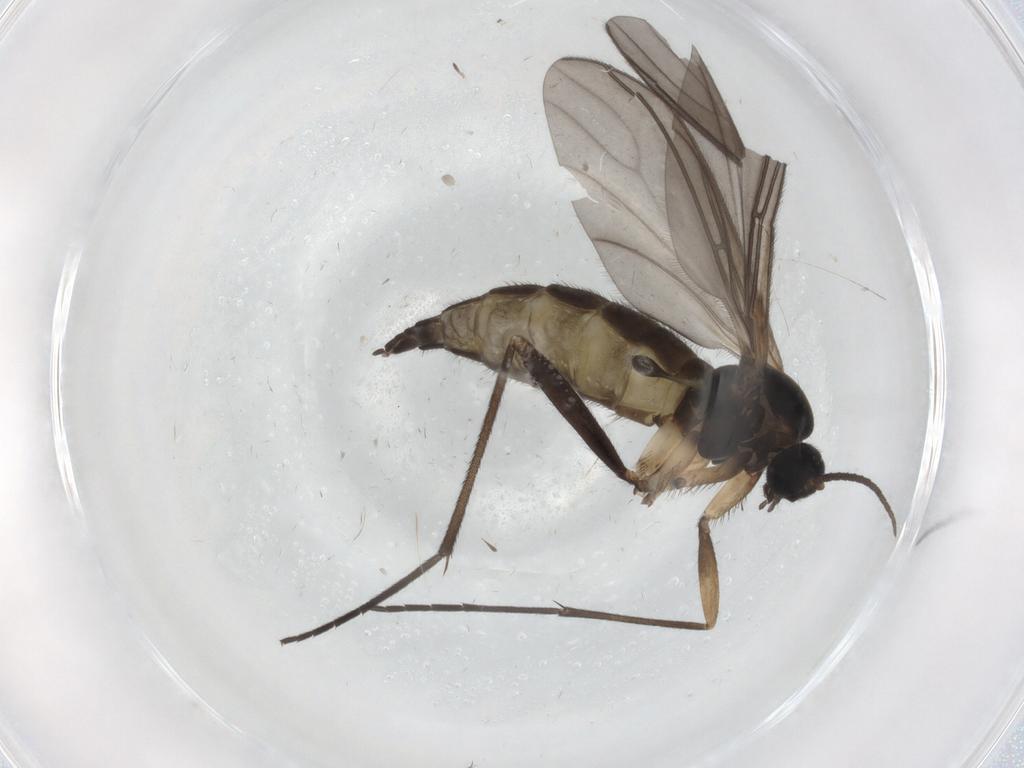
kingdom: Animalia
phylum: Arthropoda
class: Insecta
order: Diptera
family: Sciaridae
